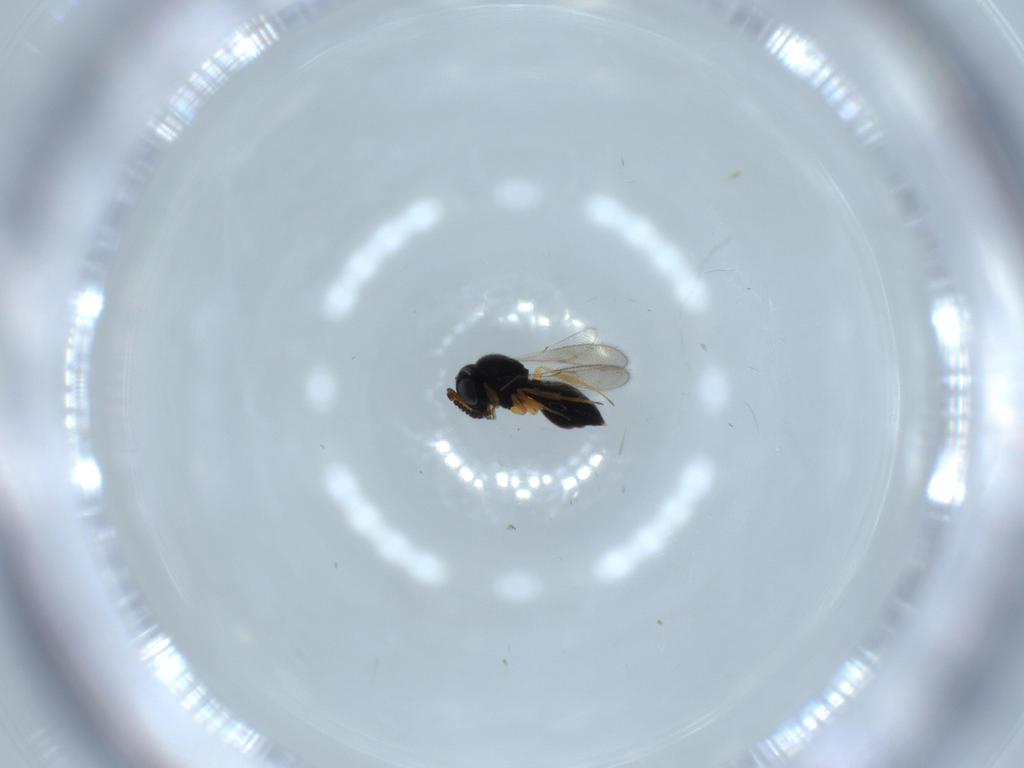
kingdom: Animalia
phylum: Arthropoda
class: Insecta
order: Hymenoptera
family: Scelionidae
